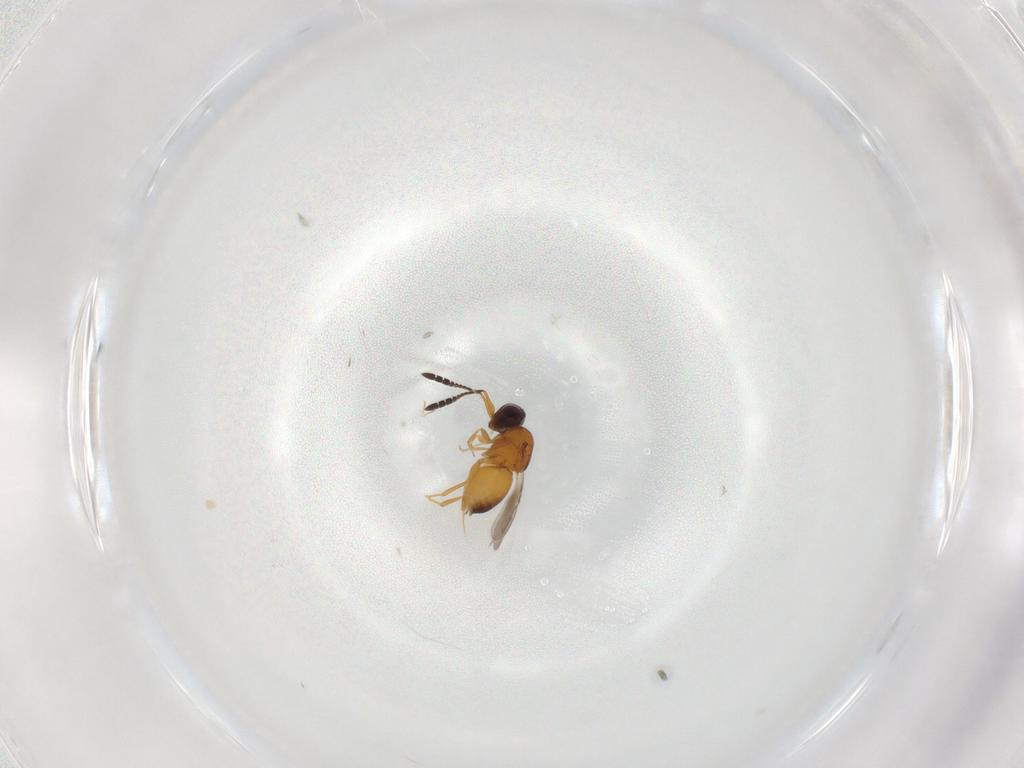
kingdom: Animalia
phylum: Arthropoda
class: Insecta
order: Hymenoptera
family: Ceraphronidae
